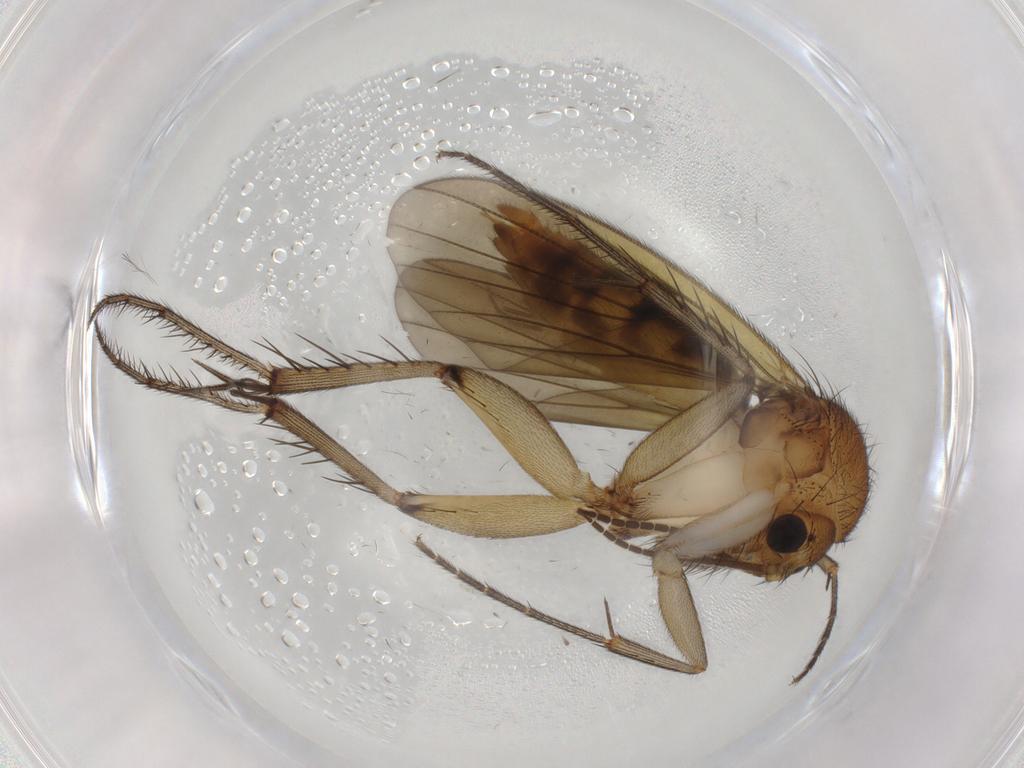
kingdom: Animalia
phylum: Arthropoda
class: Insecta
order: Diptera
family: Mycetophilidae
